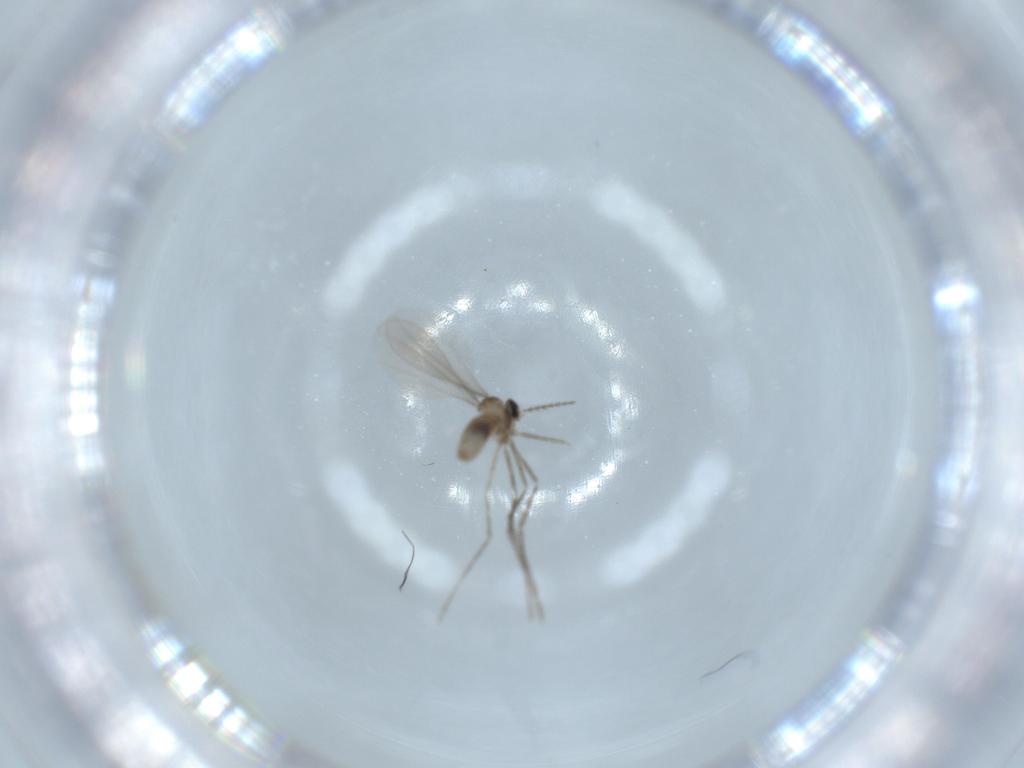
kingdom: Animalia
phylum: Arthropoda
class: Insecta
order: Diptera
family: Cecidomyiidae
